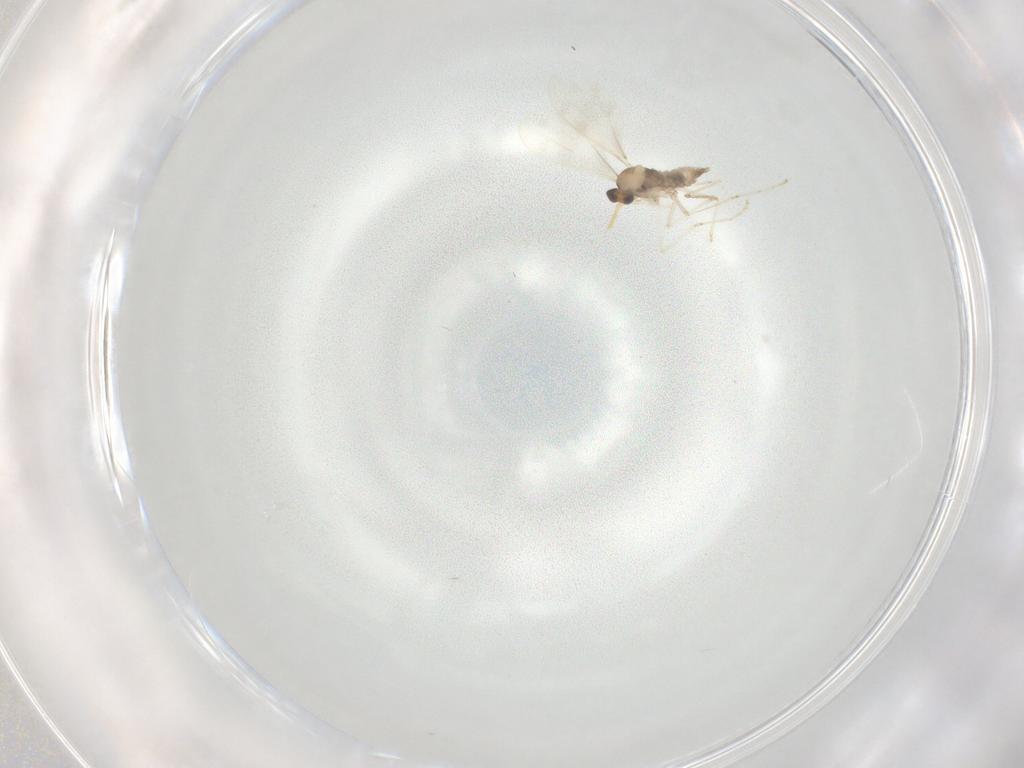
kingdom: Animalia
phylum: Arthropoda
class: Insecta
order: Diptera
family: Cecidomyiidae
